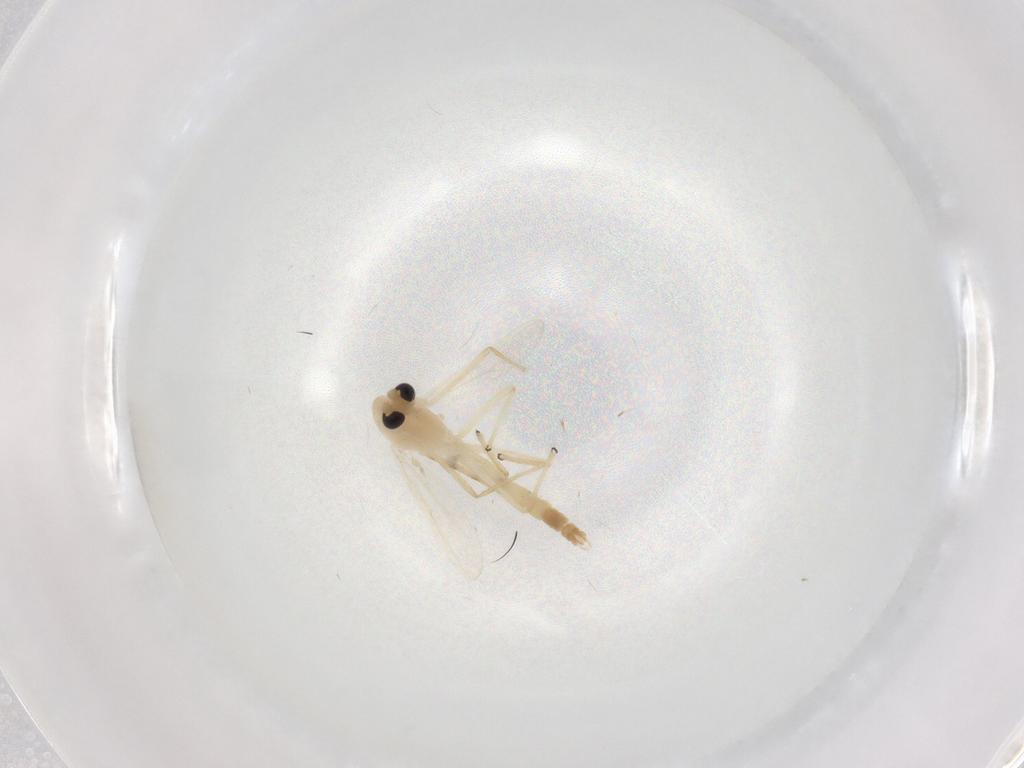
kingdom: Animalia
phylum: Arthropoda
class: Insecta
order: Diptera
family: Chironomidae
